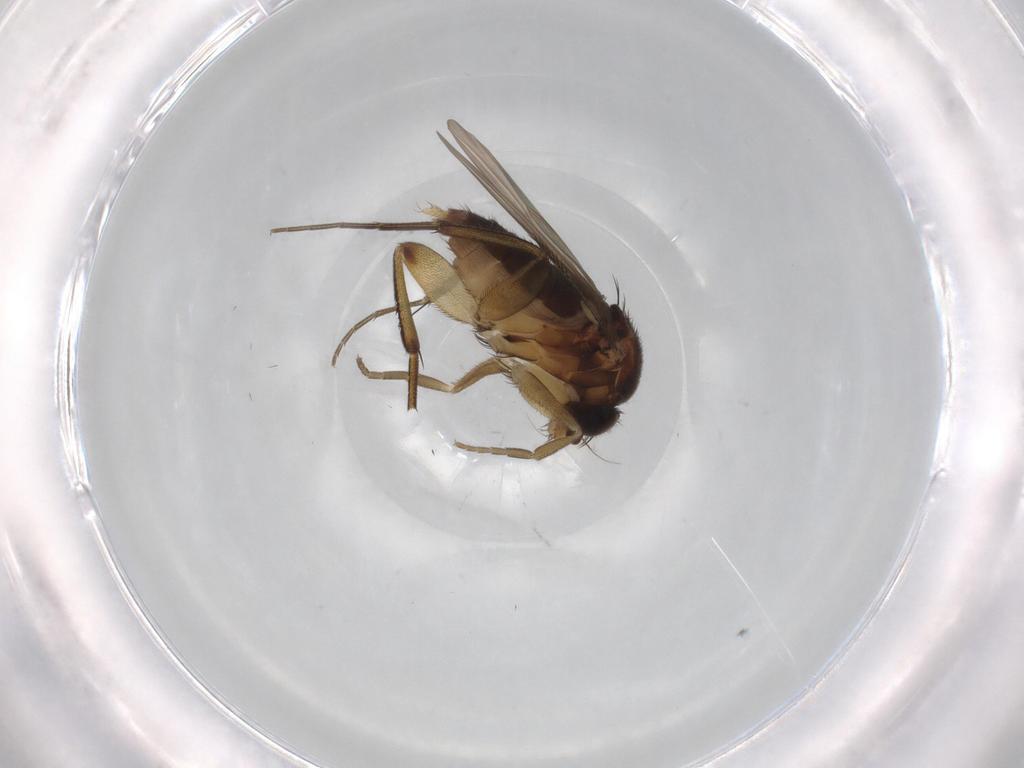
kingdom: Animalia
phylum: Arthropoda
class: Insecta
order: Diptera
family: Phoridae
